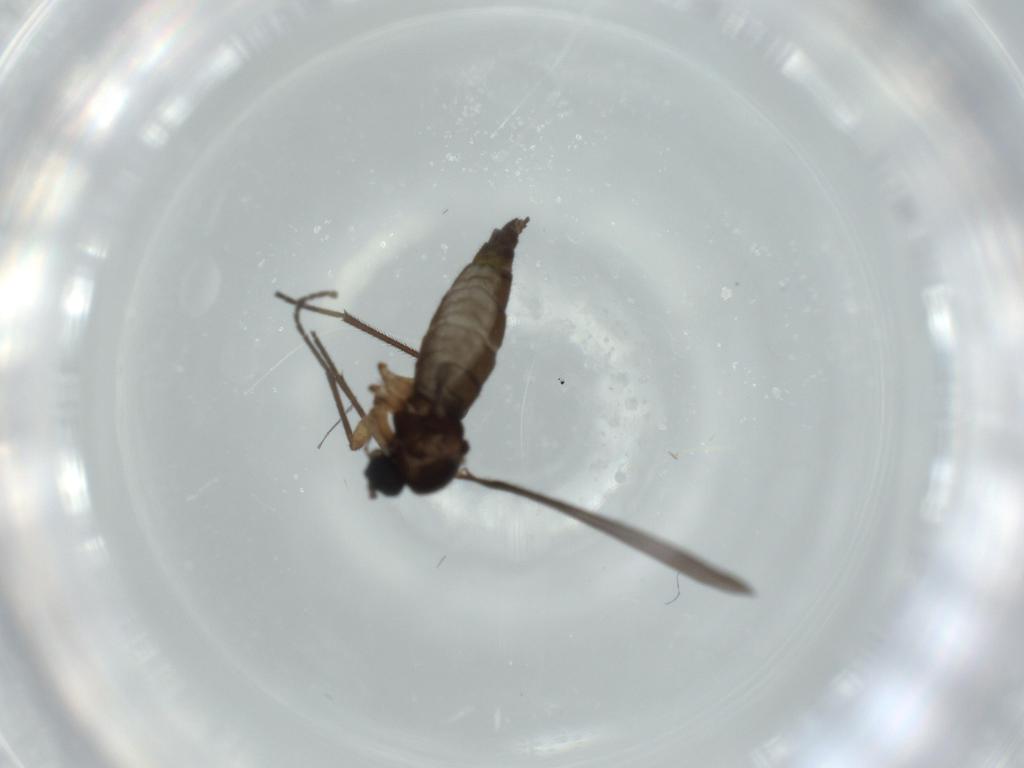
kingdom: Animalia
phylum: Arthropoda
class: Insecta
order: Diptera
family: Sciaridae
